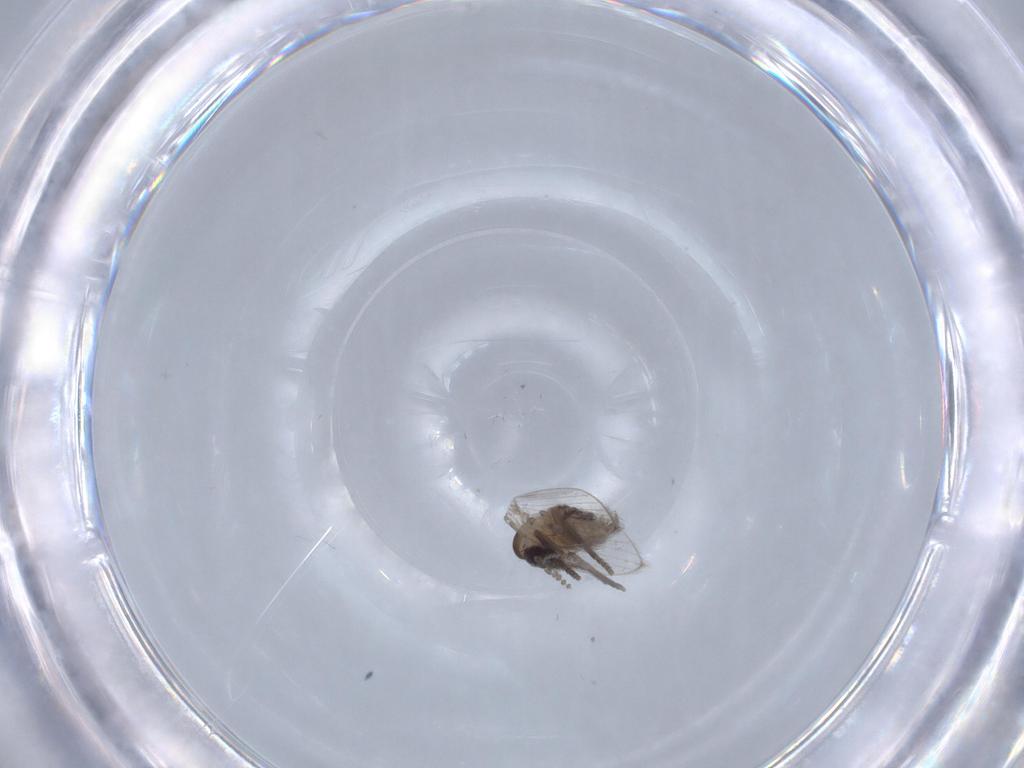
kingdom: Animalia
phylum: Arthropoda
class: Insecta
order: Diptera
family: Psychodidae
